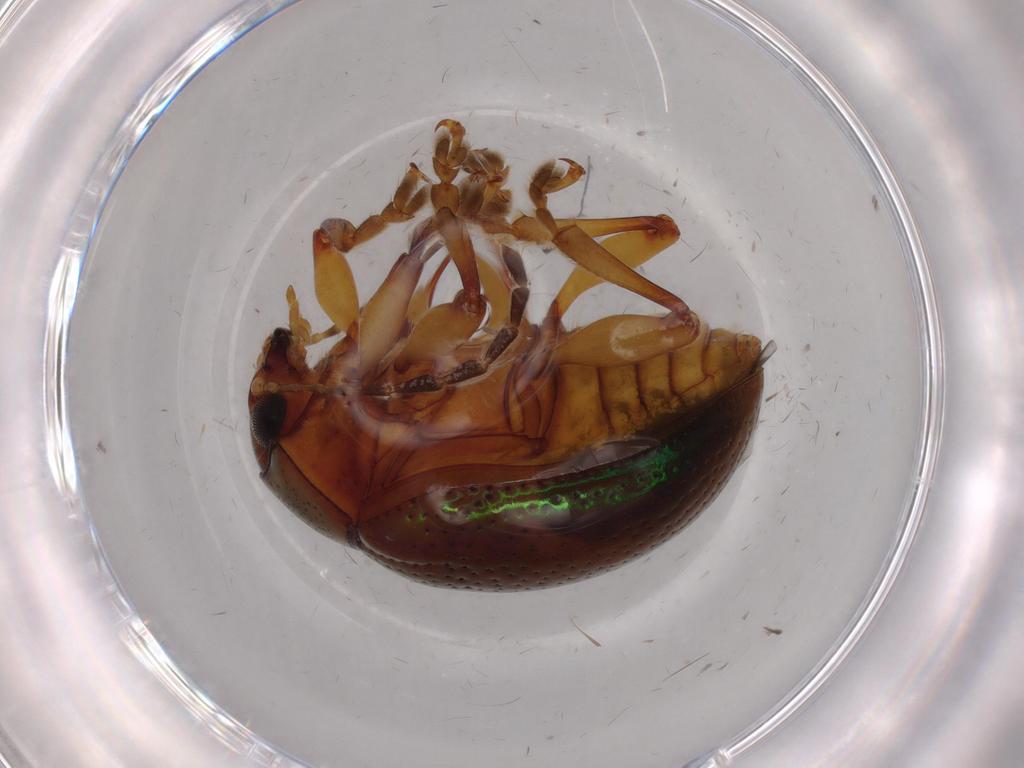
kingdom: Animalia
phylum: Arthropoda
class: Insecta
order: Coleoptera
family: Chrysomelidae
